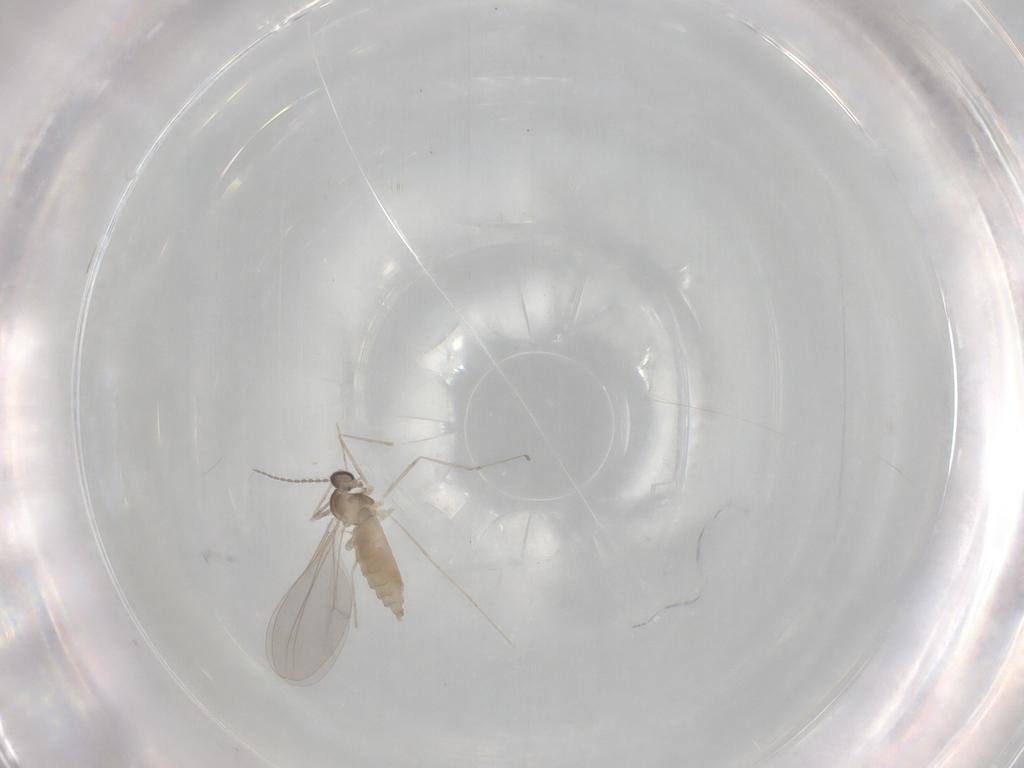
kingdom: Animalia
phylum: Arthropoda
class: Insecta
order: Diptera
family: Cecidomyiidae
